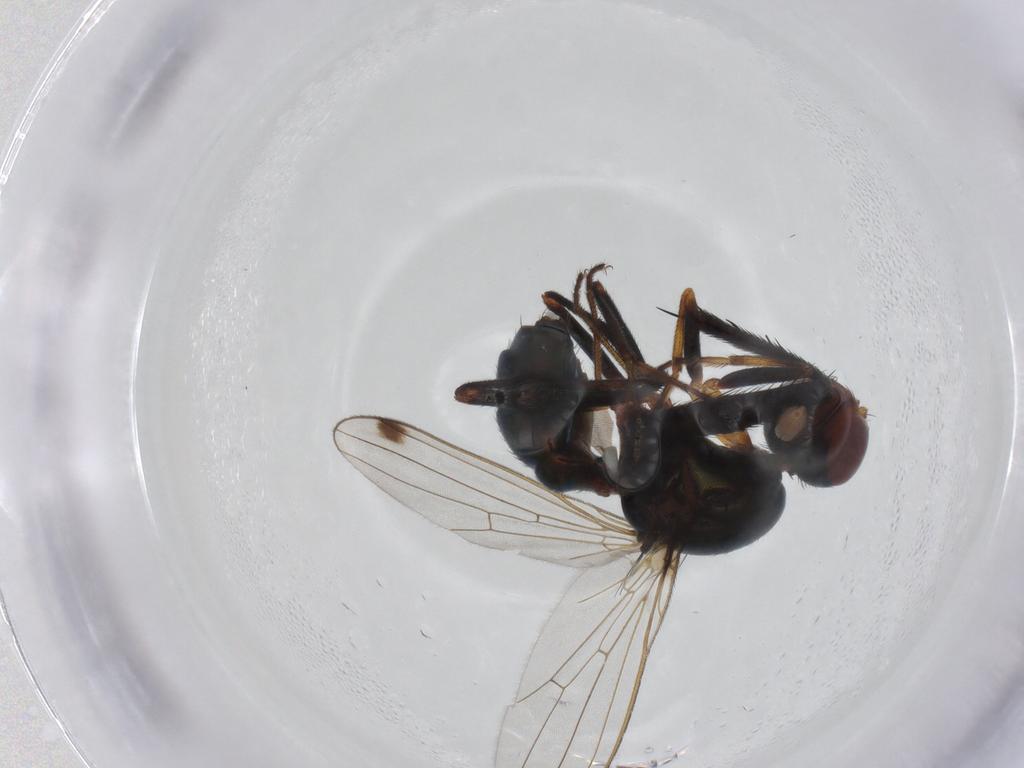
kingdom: Animalia
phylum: Arthropoda
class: Insecta
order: Diptera
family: Sepsidae
